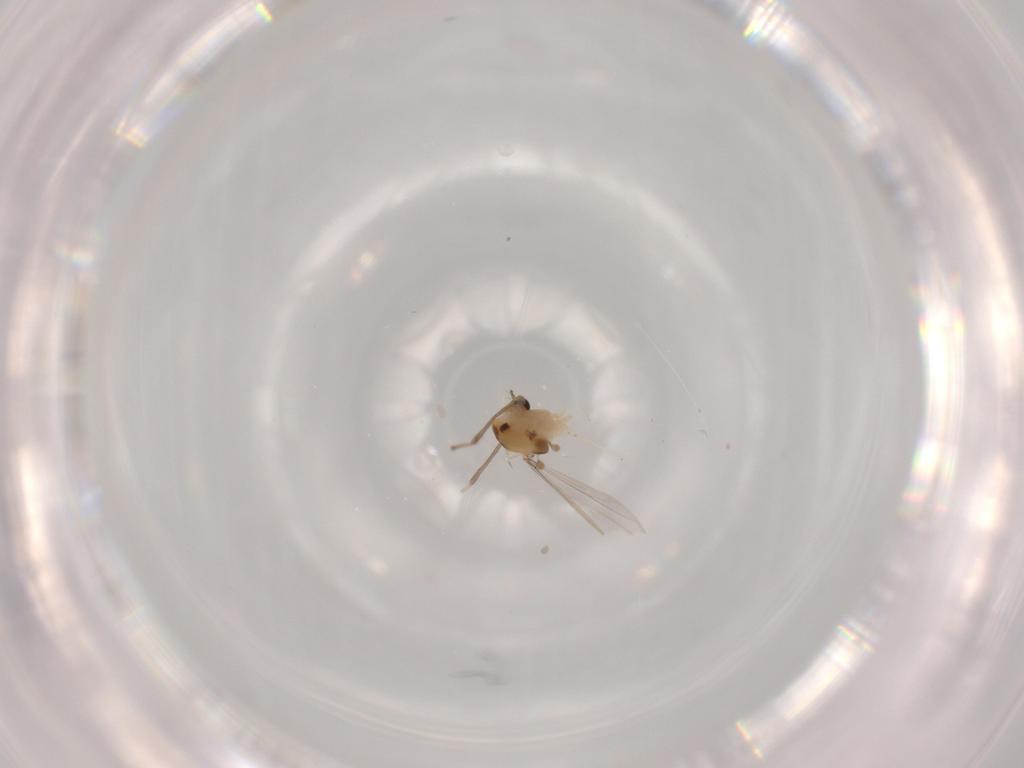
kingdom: Animalia
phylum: Arthropoda
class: Insecta
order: Diptera
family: Chironomidae
